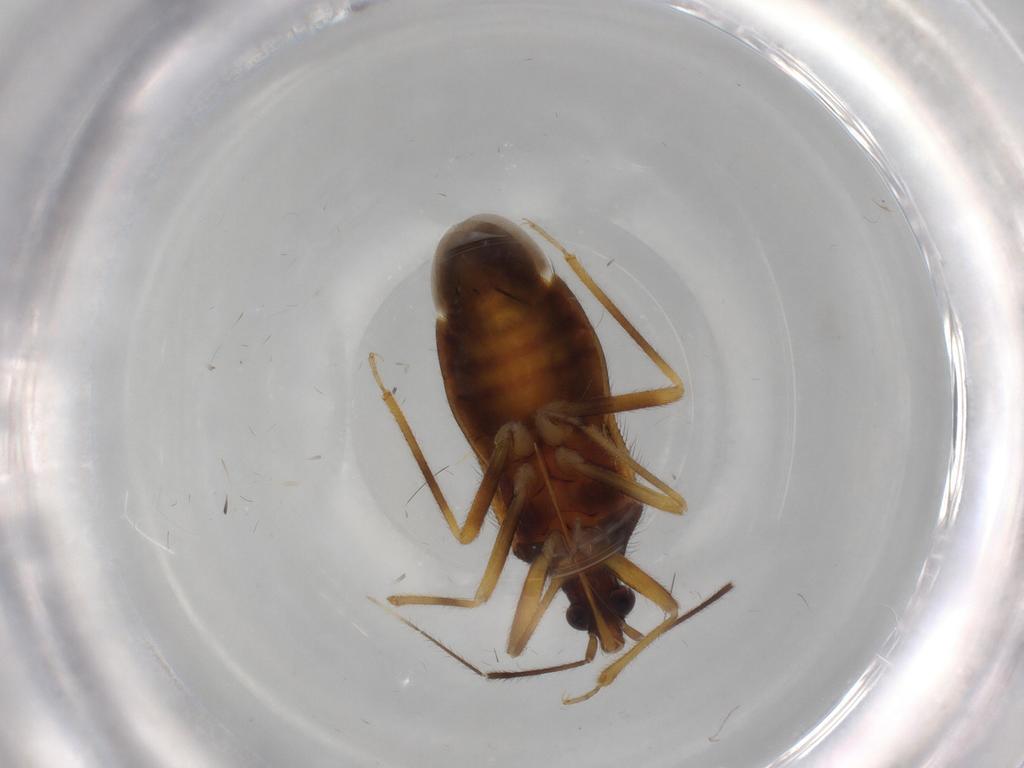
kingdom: Animalia
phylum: Arthropoda
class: Insecta
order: Hemiptera
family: Anthocoridae
